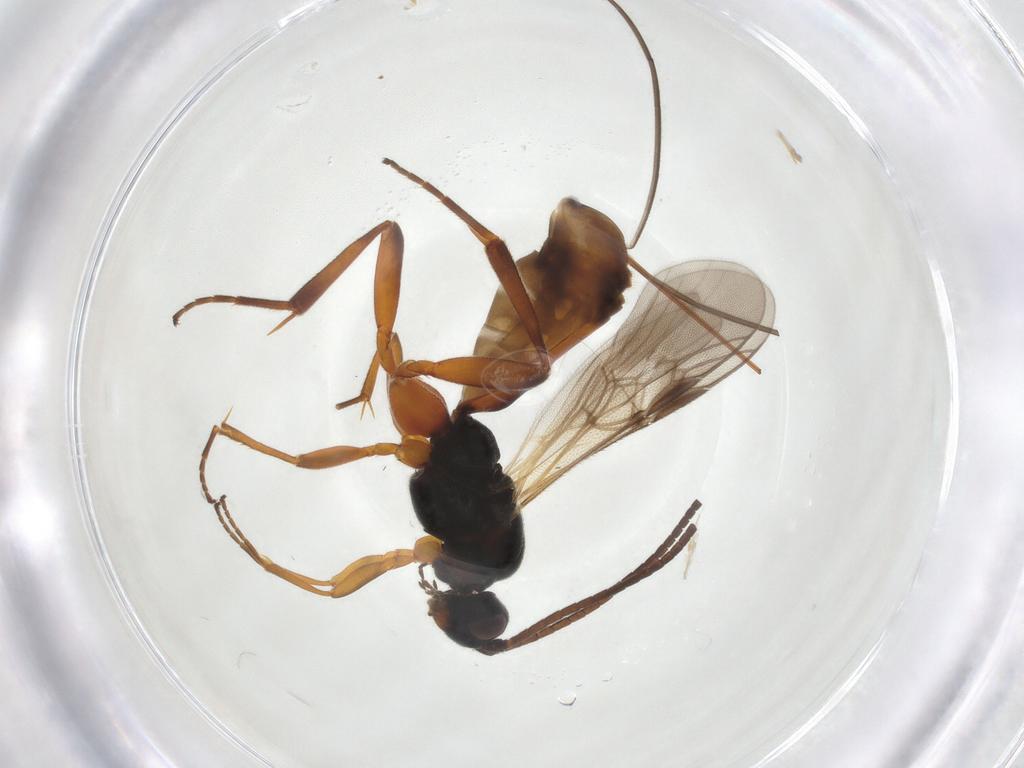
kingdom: Animalia
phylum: Arthropoda
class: Insecta
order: Hymenoptera
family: Braconidae
